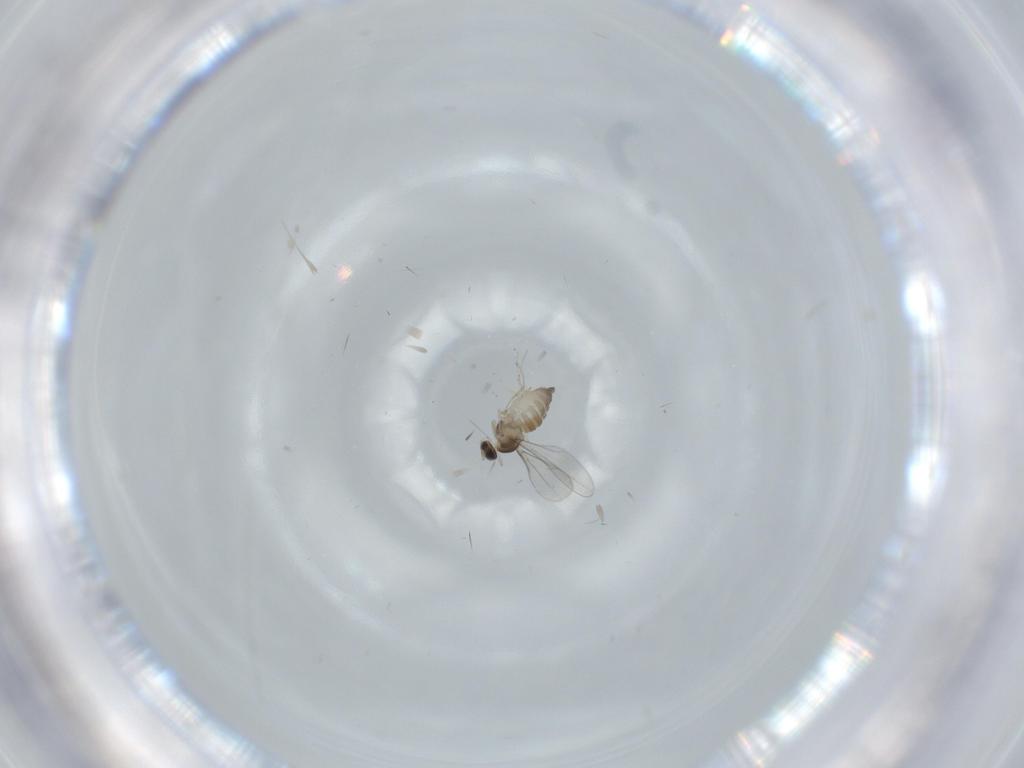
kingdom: Animalia
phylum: Arthropoda
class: Insecta
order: Diptera
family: Cecidomyiidae
